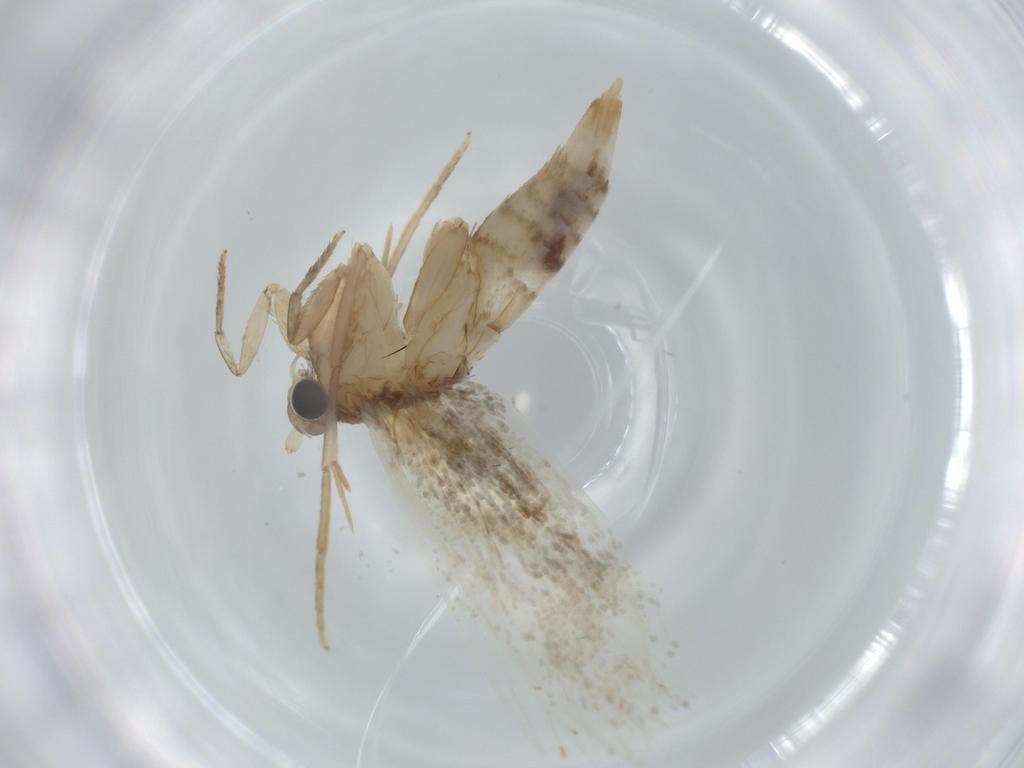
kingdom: Animalia
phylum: Arthropoda
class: Insecta
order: Lepidoptera
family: Tineidae
